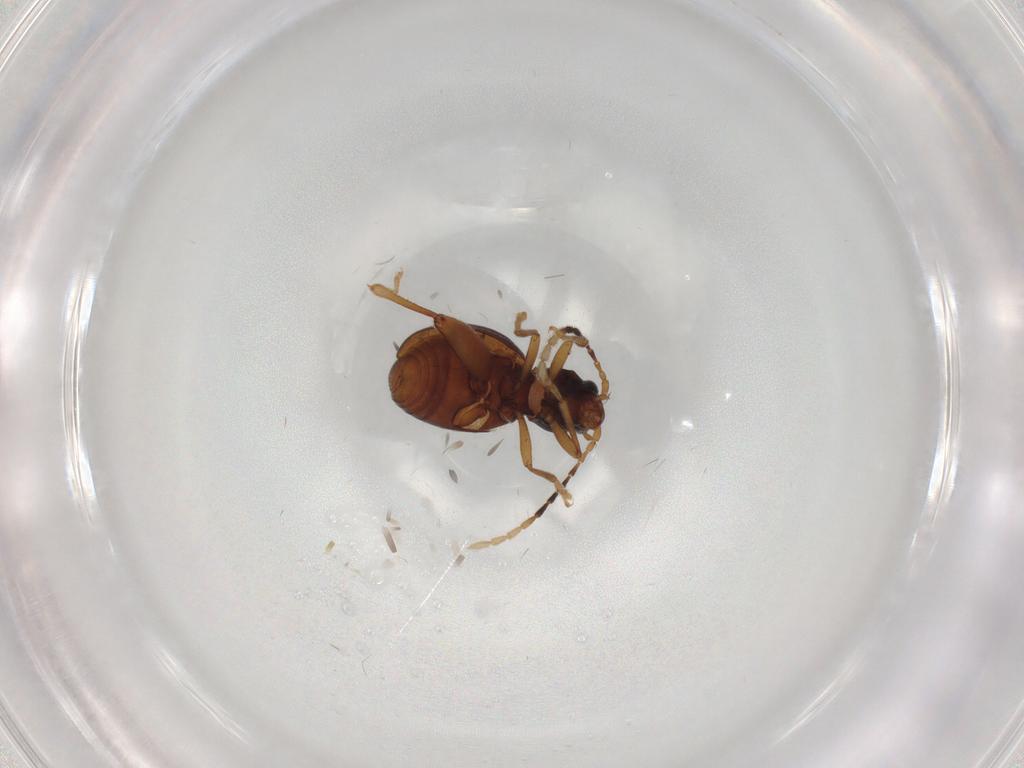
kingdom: Animalia
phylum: Arthropoda
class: Insecta
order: Coleoptera
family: Chrysomelidae
